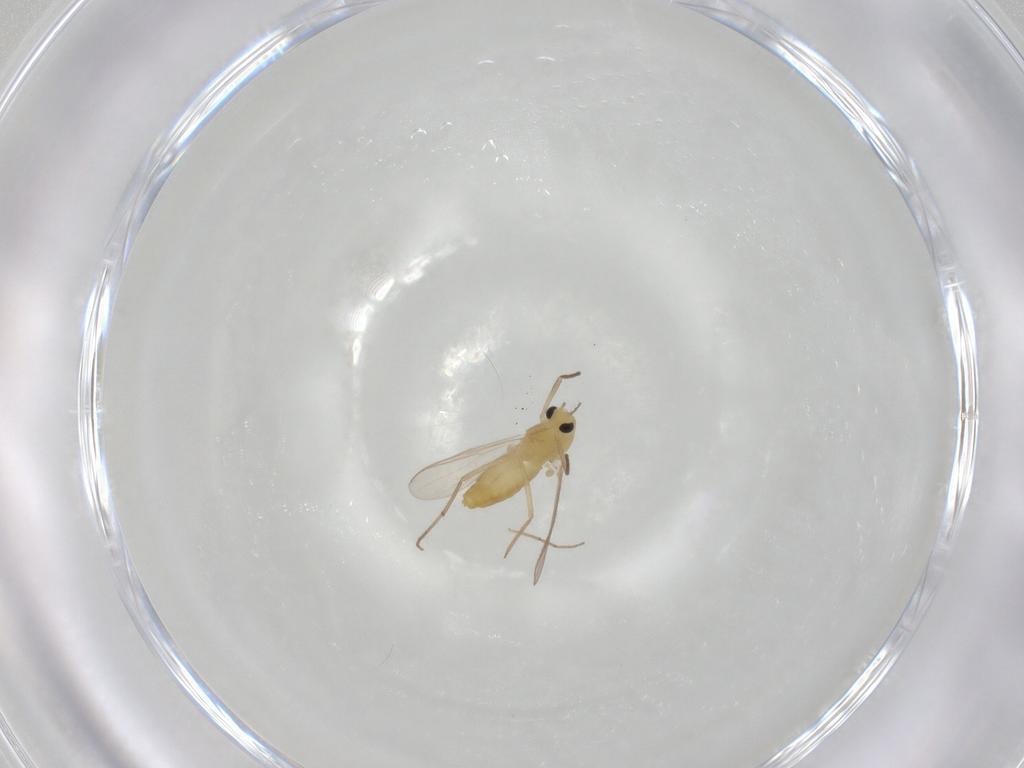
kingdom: Animalia
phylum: Arthropoda
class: Insecta
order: Diptera
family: Chironomidae
